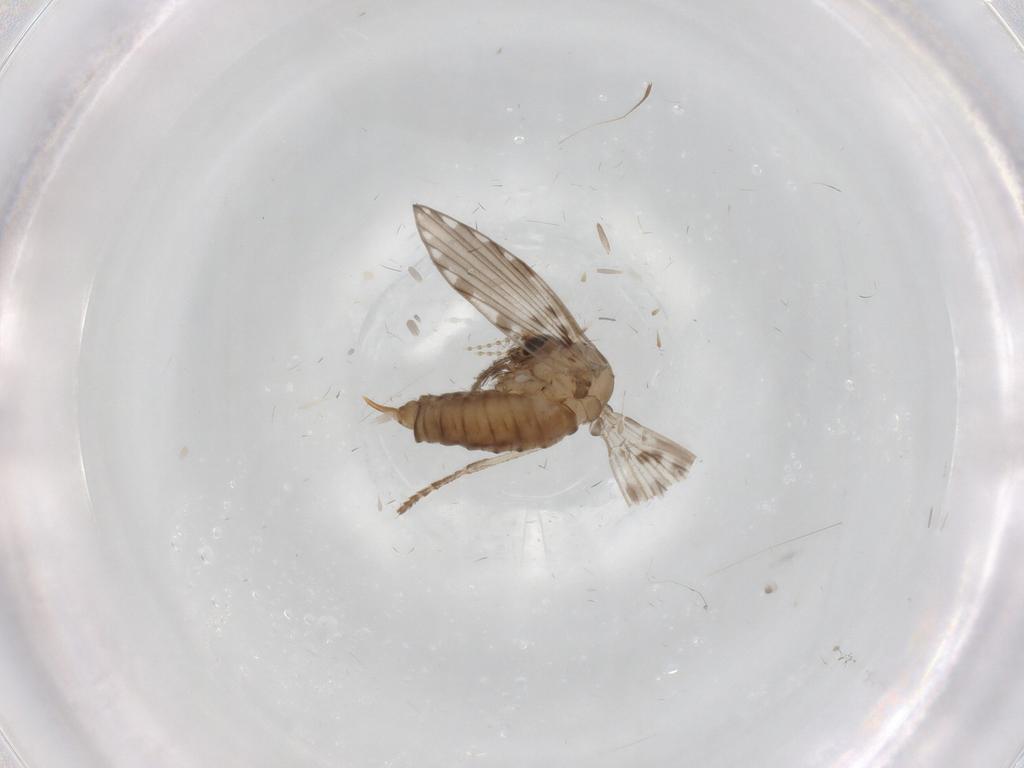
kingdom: Animalia
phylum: Arthropoda
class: Insecta
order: Diptera
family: Psychodidae
